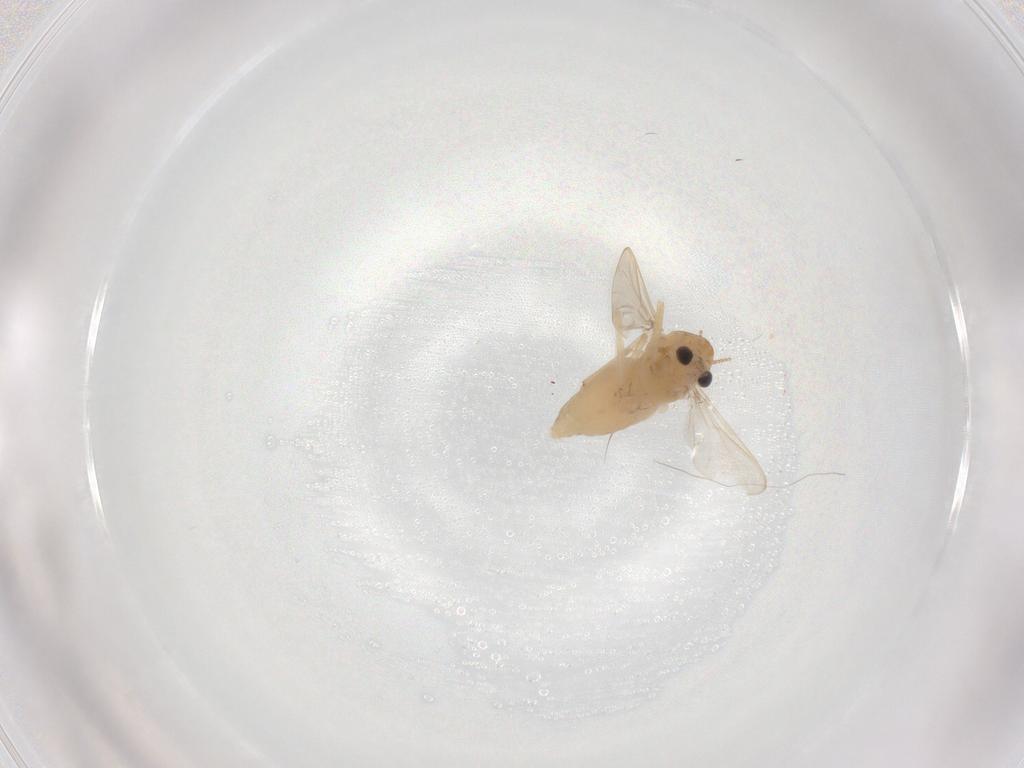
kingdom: Animalia
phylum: Arthropoda
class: Insecta
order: Diptera
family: Chironomidae
